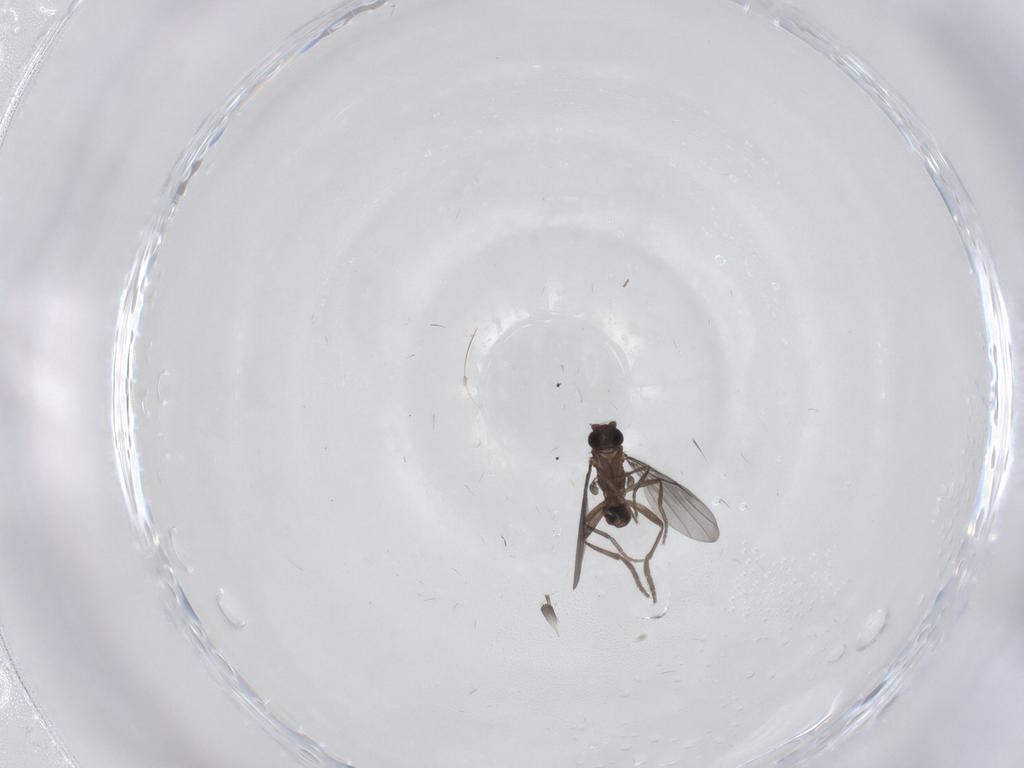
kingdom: Animalia
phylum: Arthropoda
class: Insecta
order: Diptera
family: Phoridae
